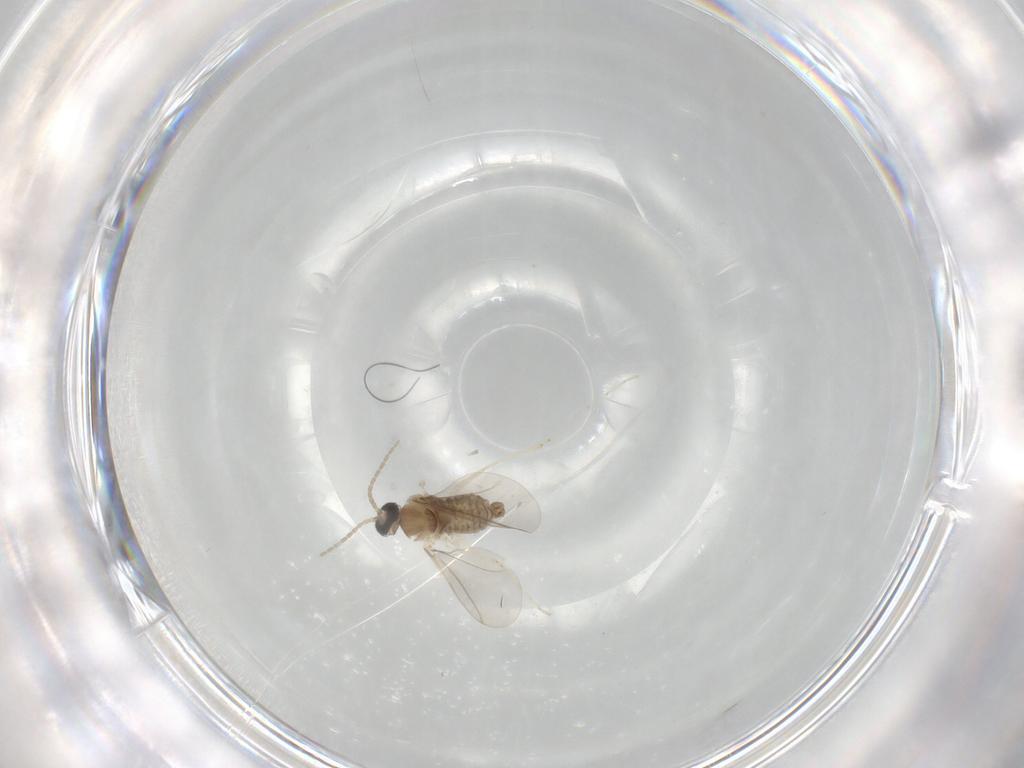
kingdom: Animalia
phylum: Arthropoda
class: Insecta
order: Diptera
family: Cecidomyiidae
